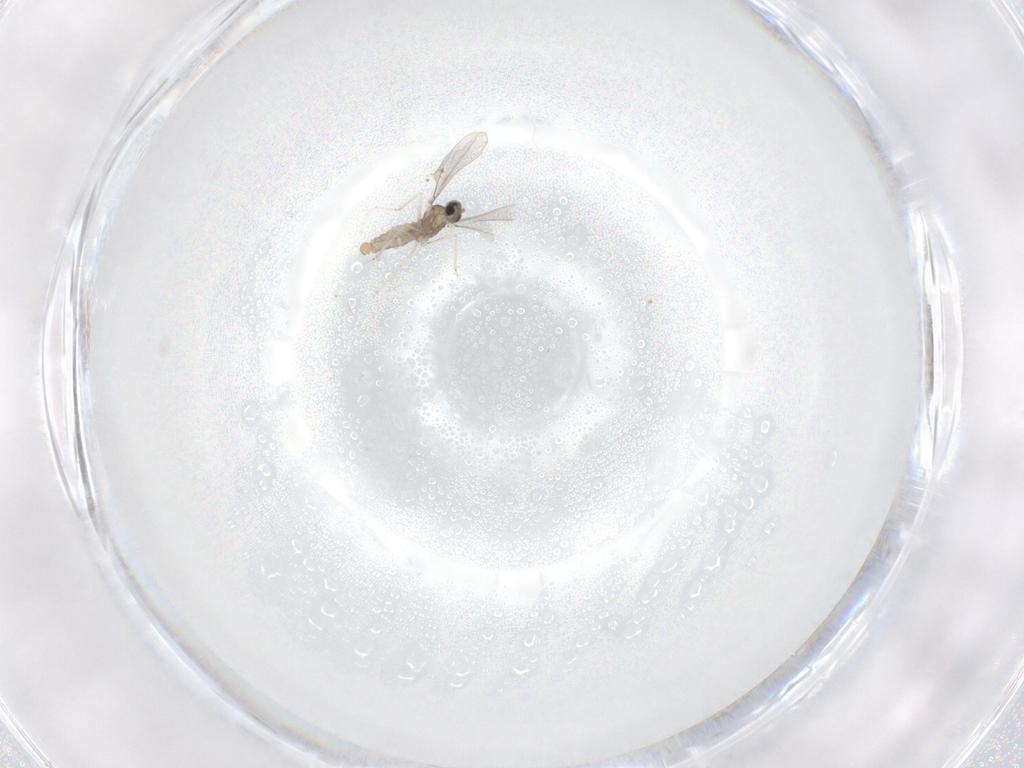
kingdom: Animalia
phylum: Arthropoda
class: Insecta
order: Diptera
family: Cecidomyiidae
